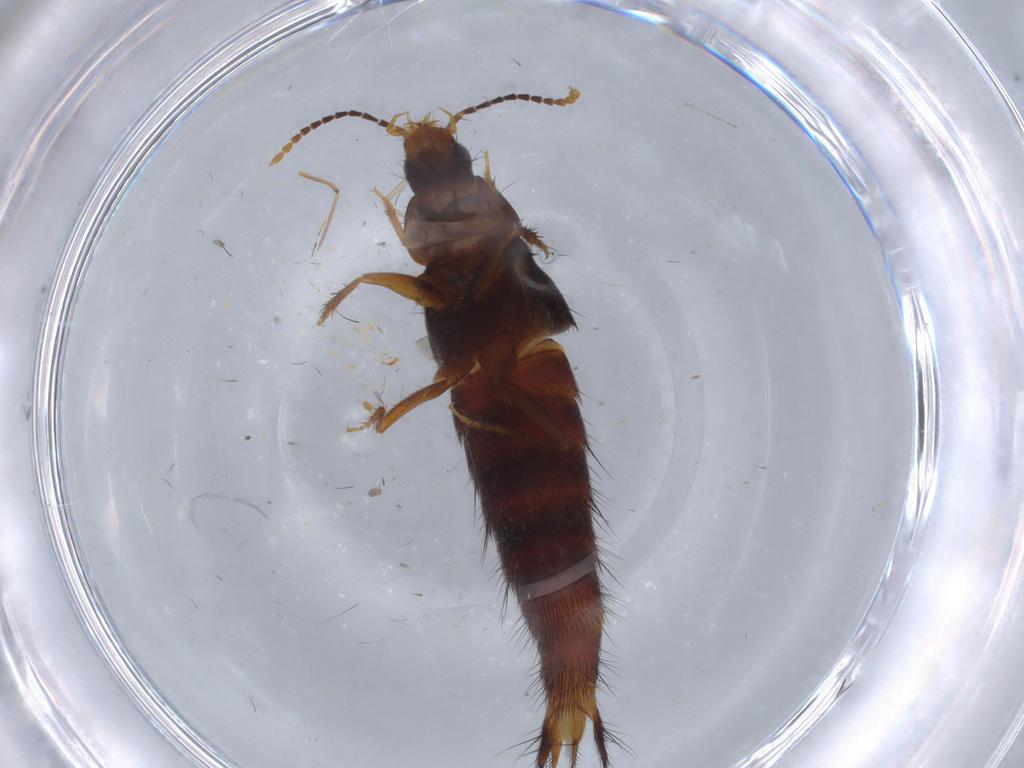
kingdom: Animalia
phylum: Arthropoda
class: Insecta
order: Coleoptera
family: Staphylinidae
